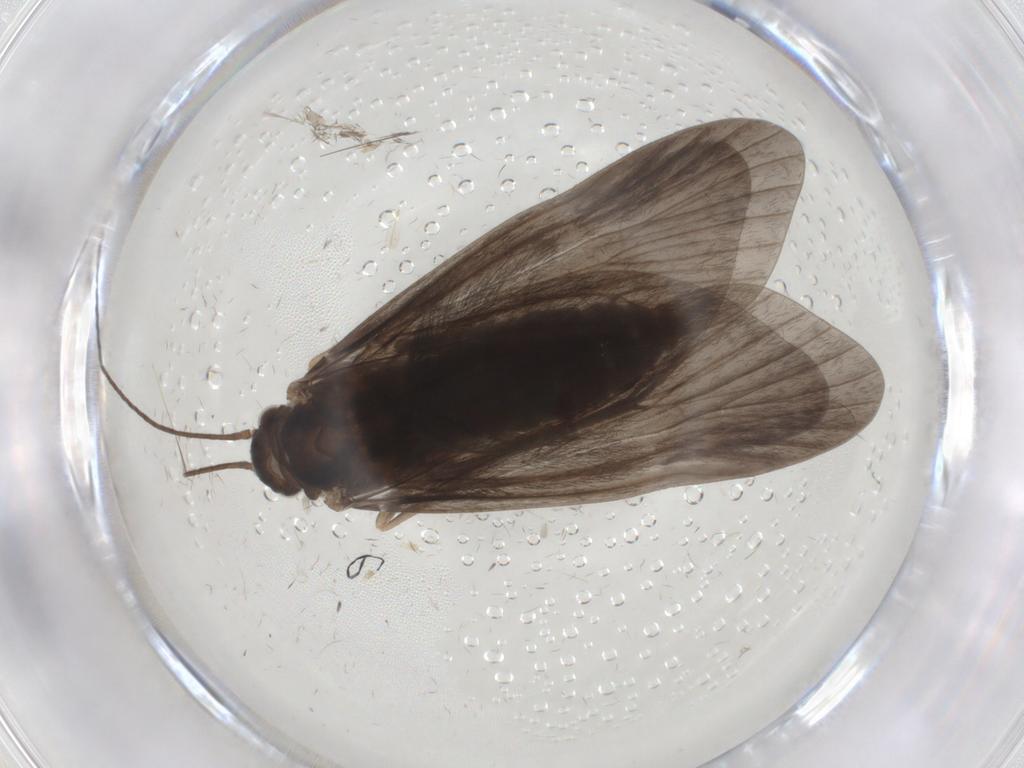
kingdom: Animalia
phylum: Arthropoda
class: Insecta
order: Trichoptera
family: Hydropsychidae
